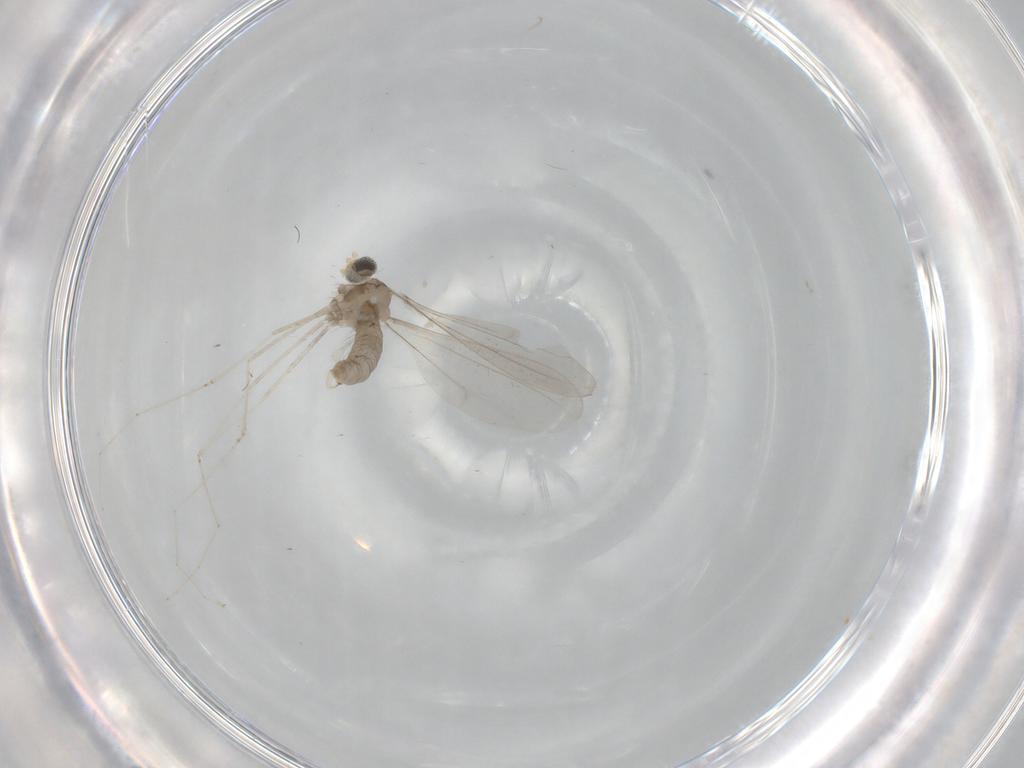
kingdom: Animalia
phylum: Arthropoda
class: Insecta
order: Diptera
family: Cecidomyiidae
